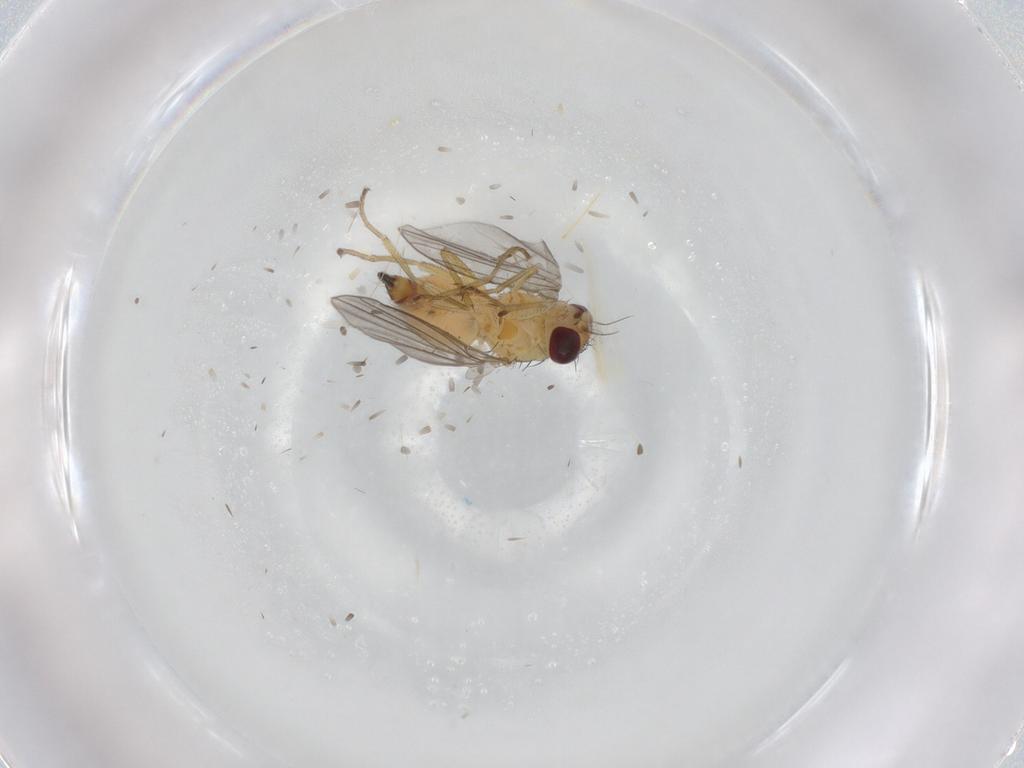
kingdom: Animalia
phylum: Arthropoda
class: Insecta
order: Diptera
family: Agromyzidae
